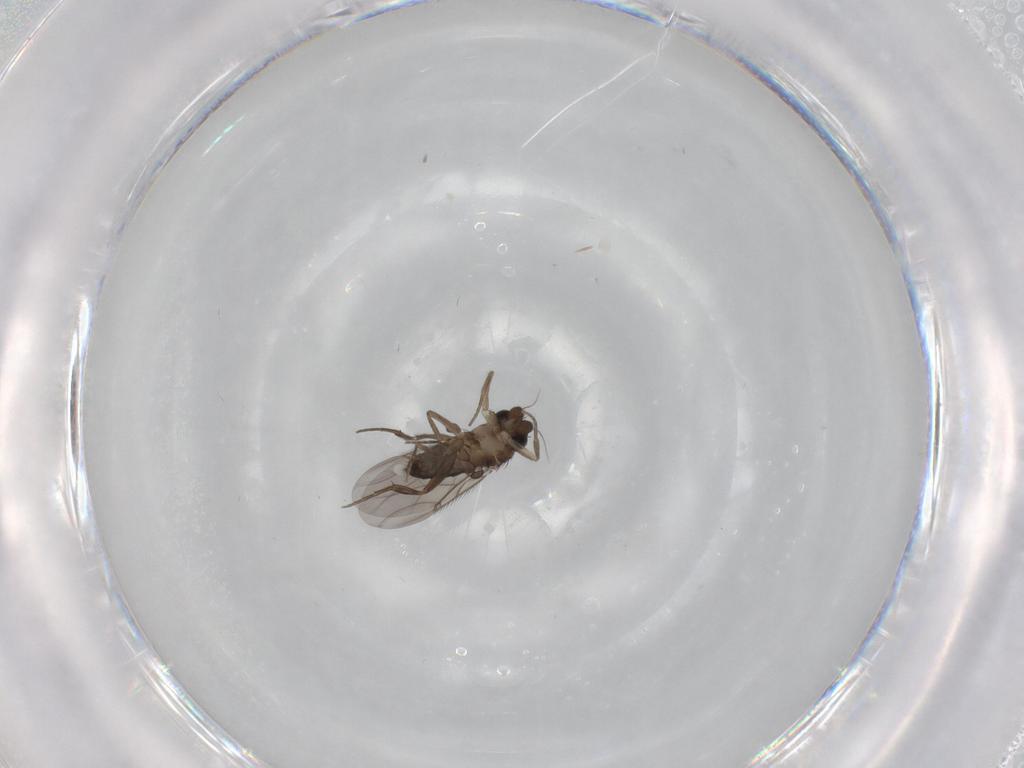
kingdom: Animalia
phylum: Arthropoda
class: Insecta
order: Diptera
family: Phoridae
